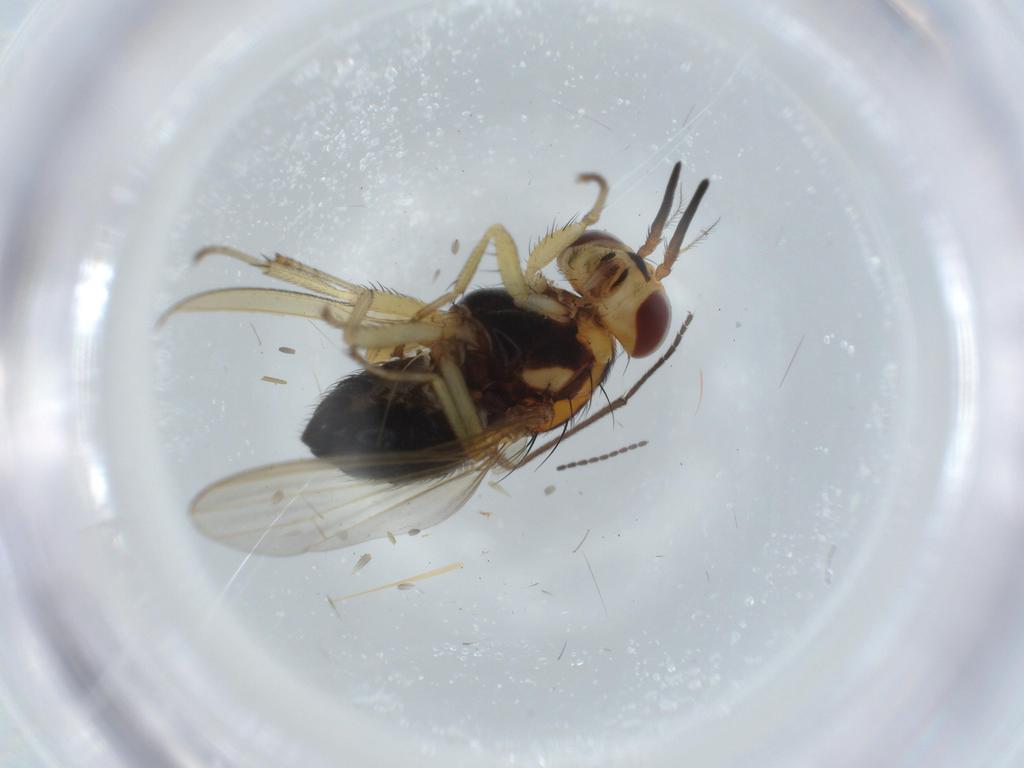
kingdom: Animalia
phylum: Arthropoda
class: Insecta
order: Diptera
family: Lauxaniidae
